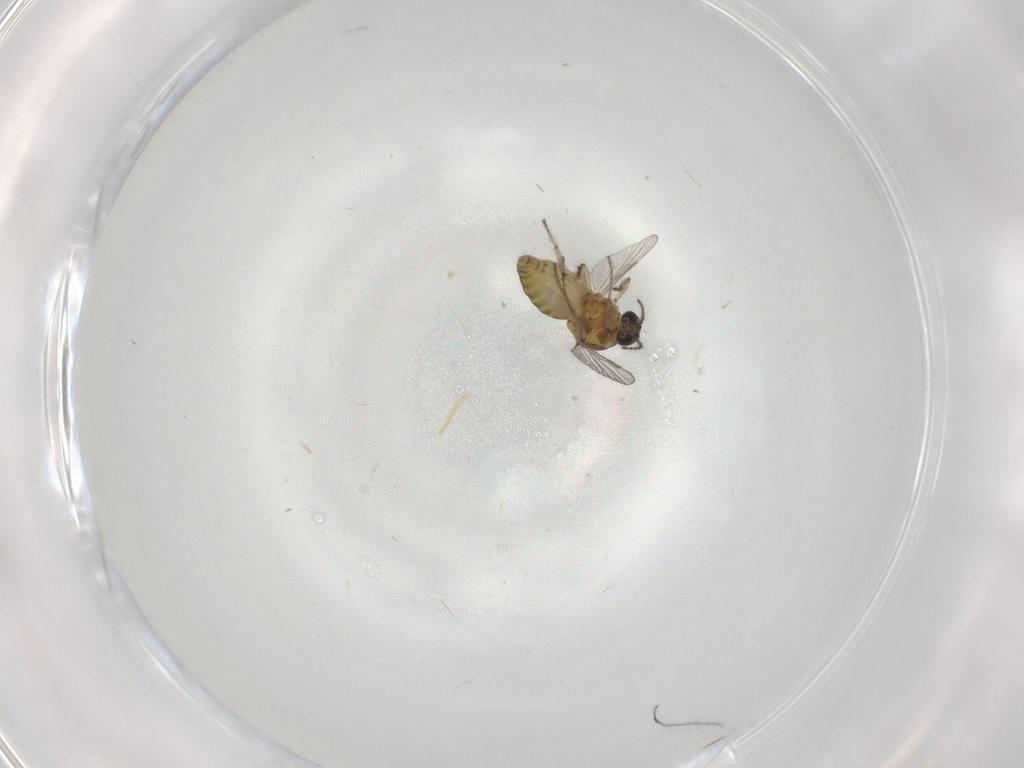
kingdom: Animalia
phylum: Arthropoda
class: Insecta
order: Diptera
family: Ceratopogonidae
